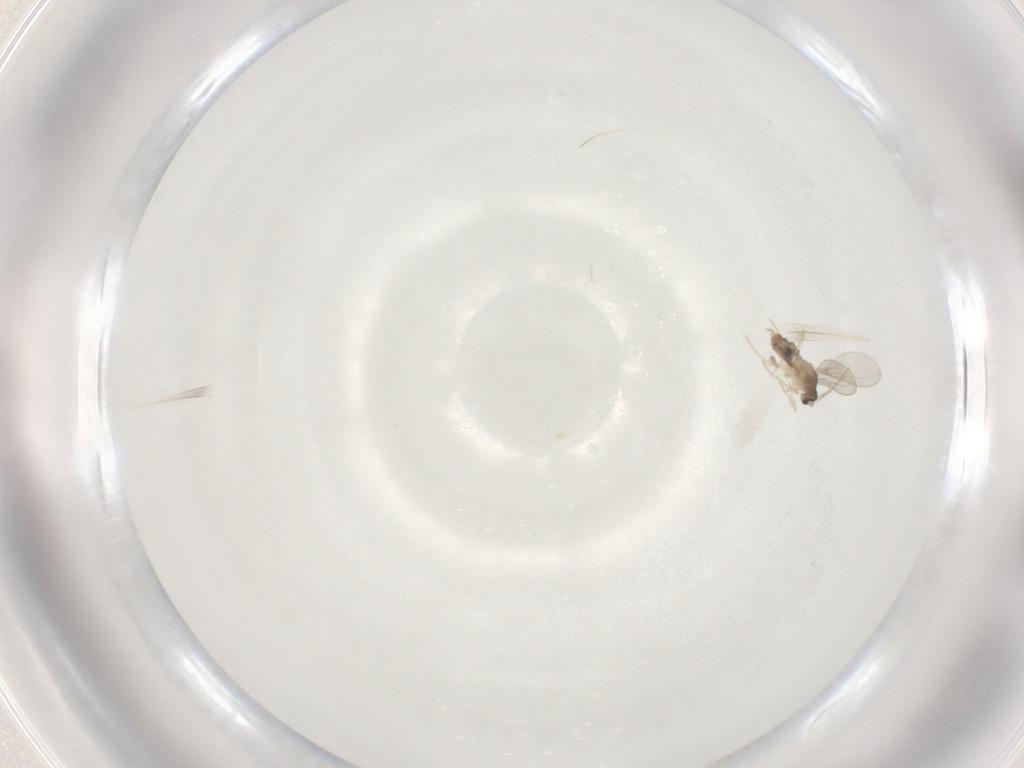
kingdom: Animalia
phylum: Arthropoda
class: Insecta
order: Diptera
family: Cecidomyiidae
